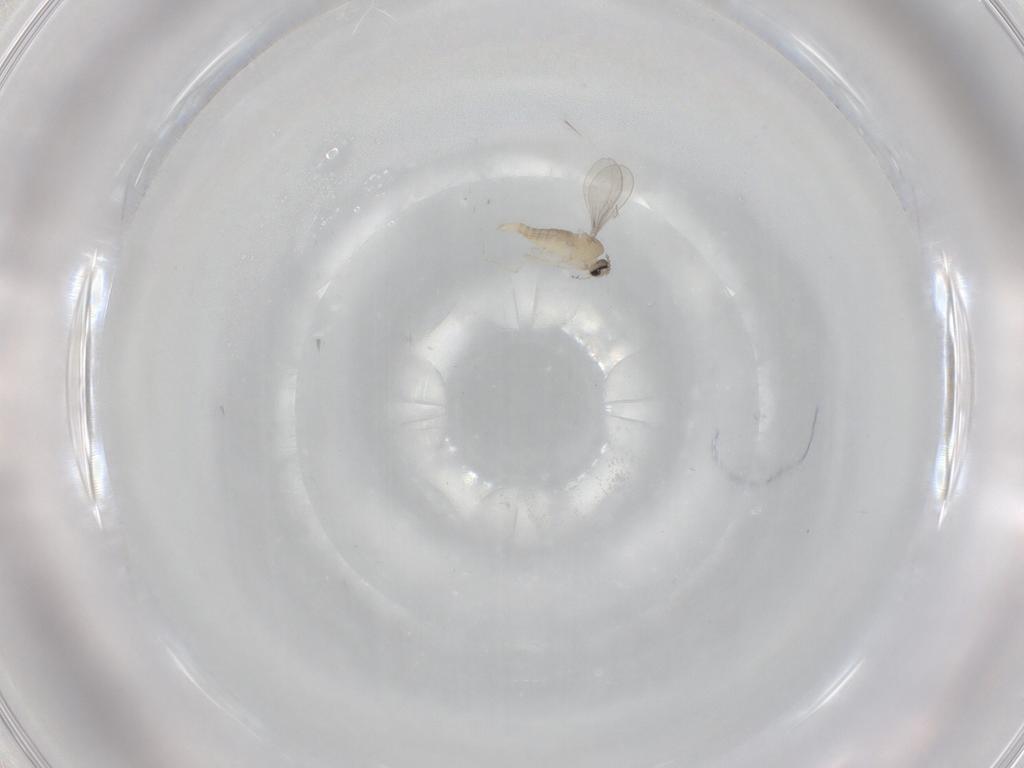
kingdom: Animalia
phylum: Arthropoda
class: Insecta
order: Diptera
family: Cecidomyiidae
